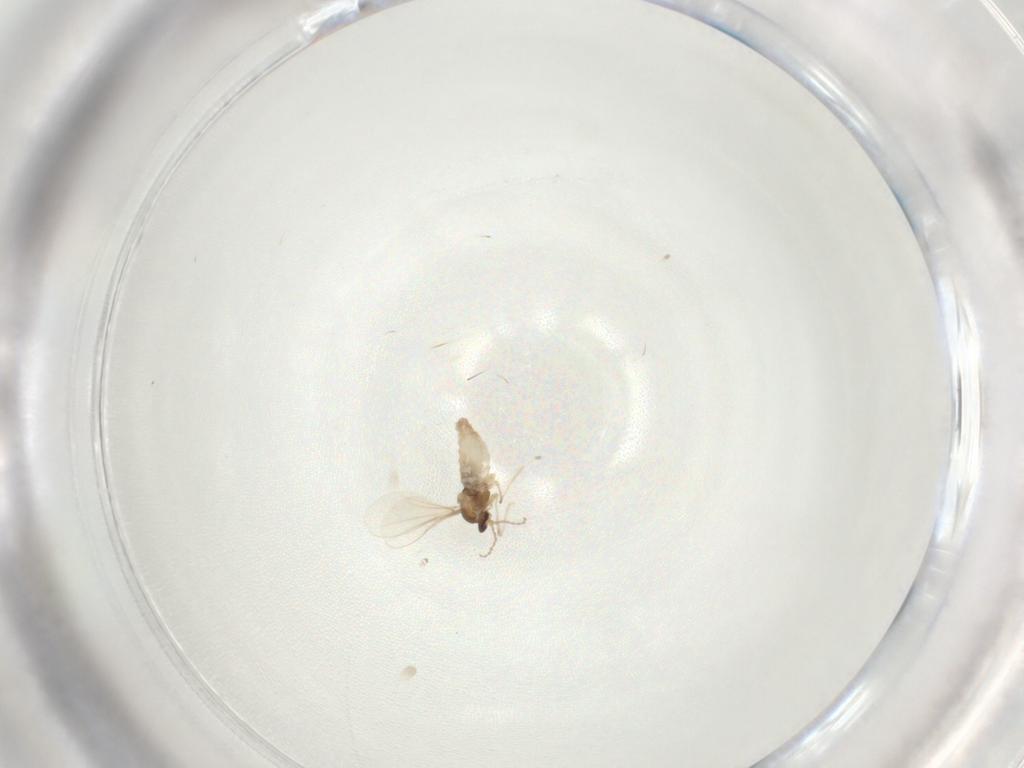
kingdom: Animalia
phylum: Arthropoda
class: Insecta
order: Diptera
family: Cecidomyiidae
